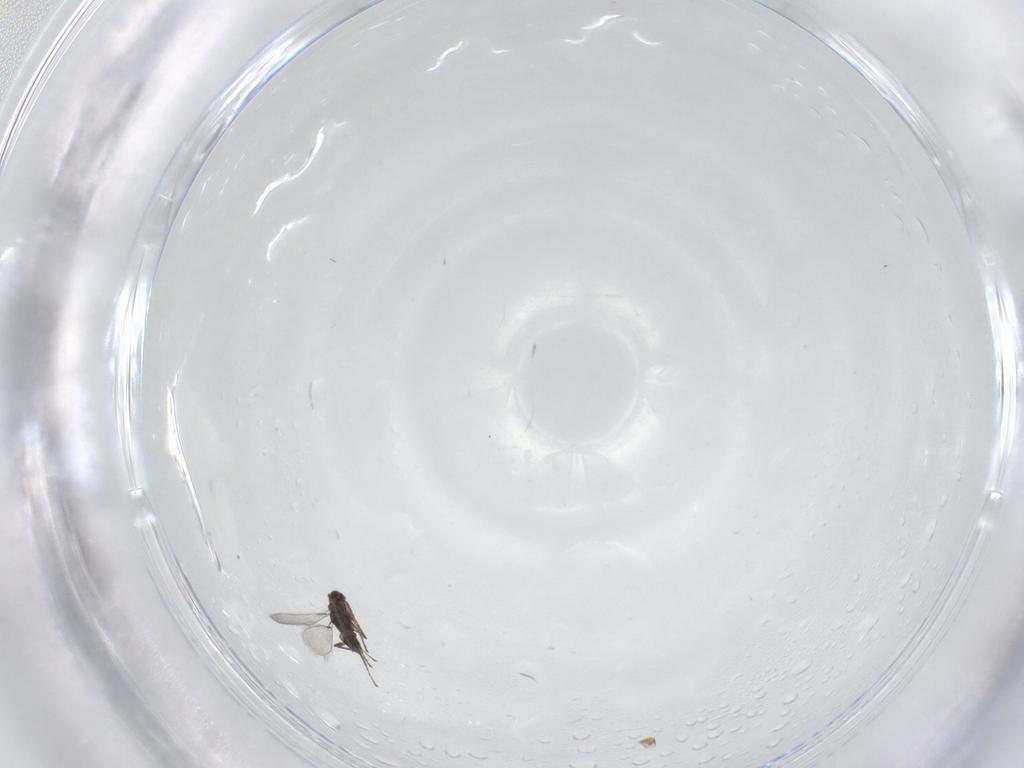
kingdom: Animalia
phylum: Arthropoda
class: Insecta
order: Hymenoptera
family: Mymaridae
